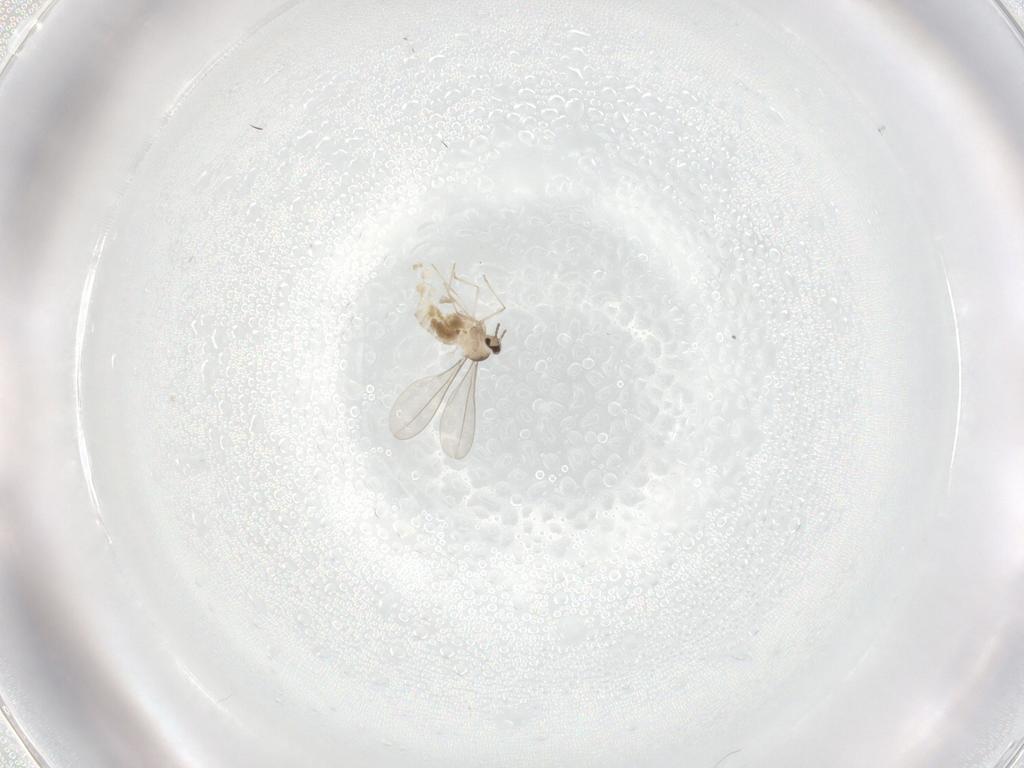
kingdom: Animalia
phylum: Arthropoda
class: Insecta
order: Diptera
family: Cecidomyiidae
